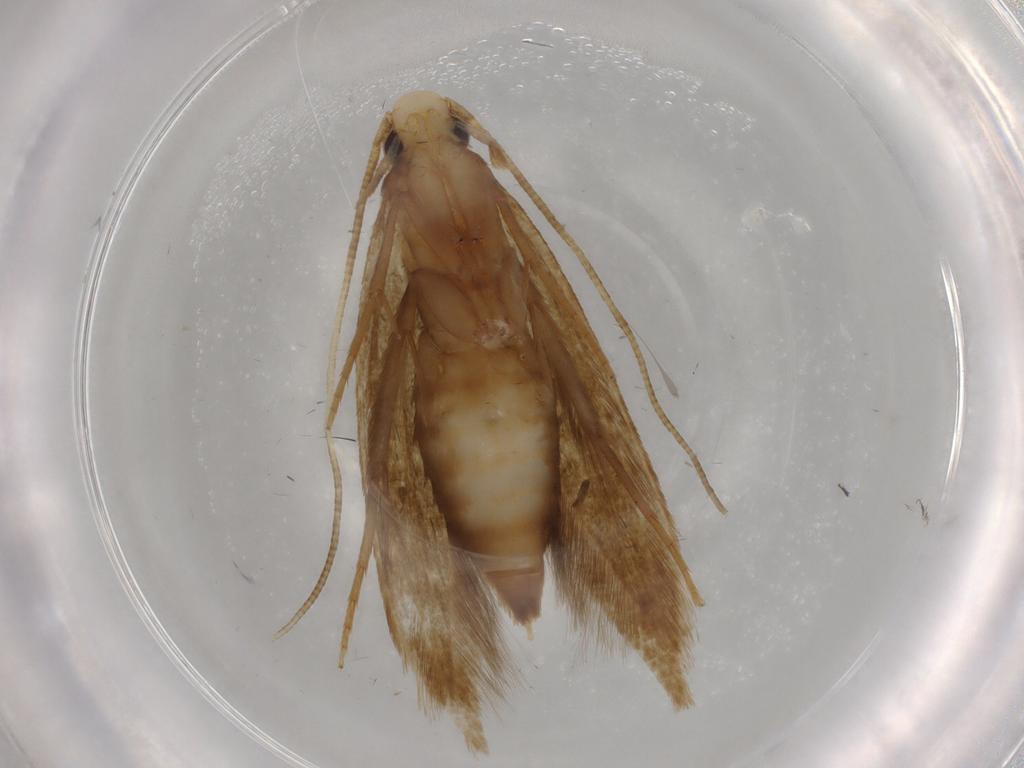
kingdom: Animalia
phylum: Arthropoda
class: Insecta
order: Lepidoptera
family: Tineidae
